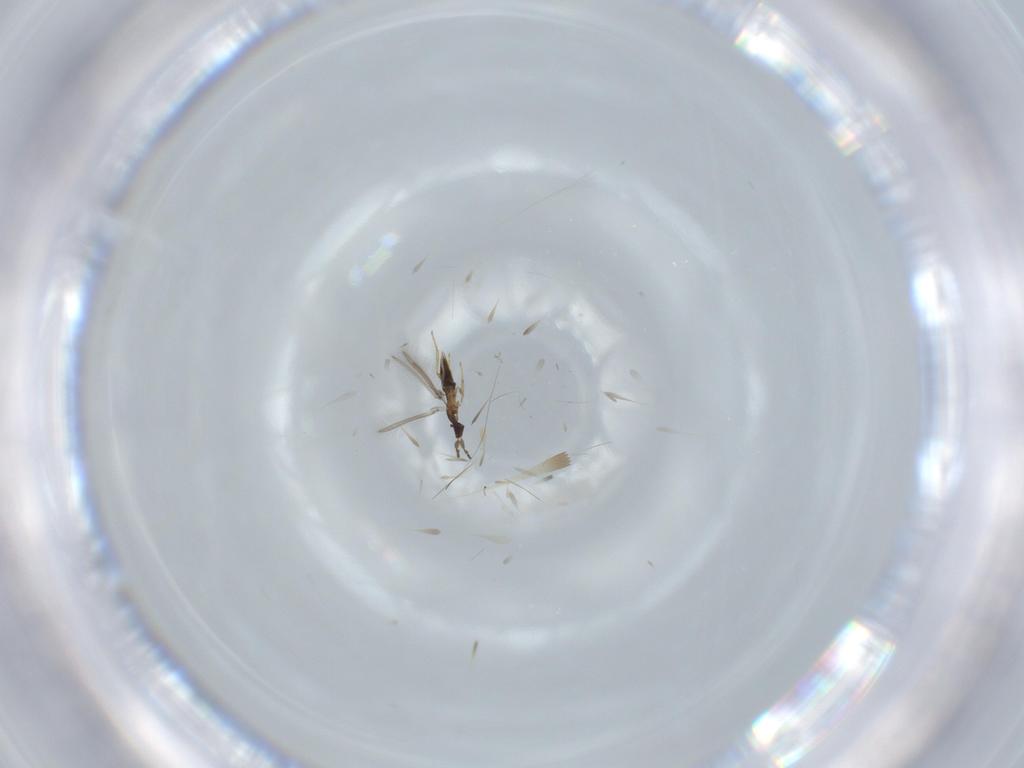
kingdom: Animalia
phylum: Arthropoda
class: Insecta
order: Hymenoptera
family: Mymaridae
